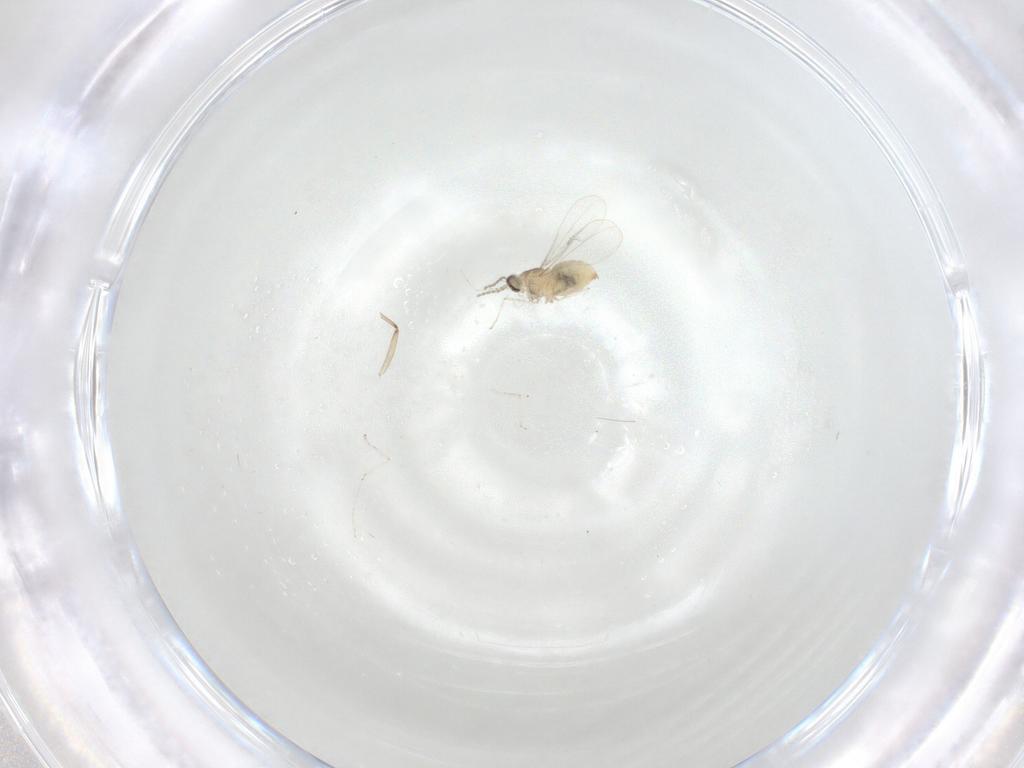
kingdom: Animalia
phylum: Arthropoda
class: Insecta
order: Diptera
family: Cecidomyiidae
